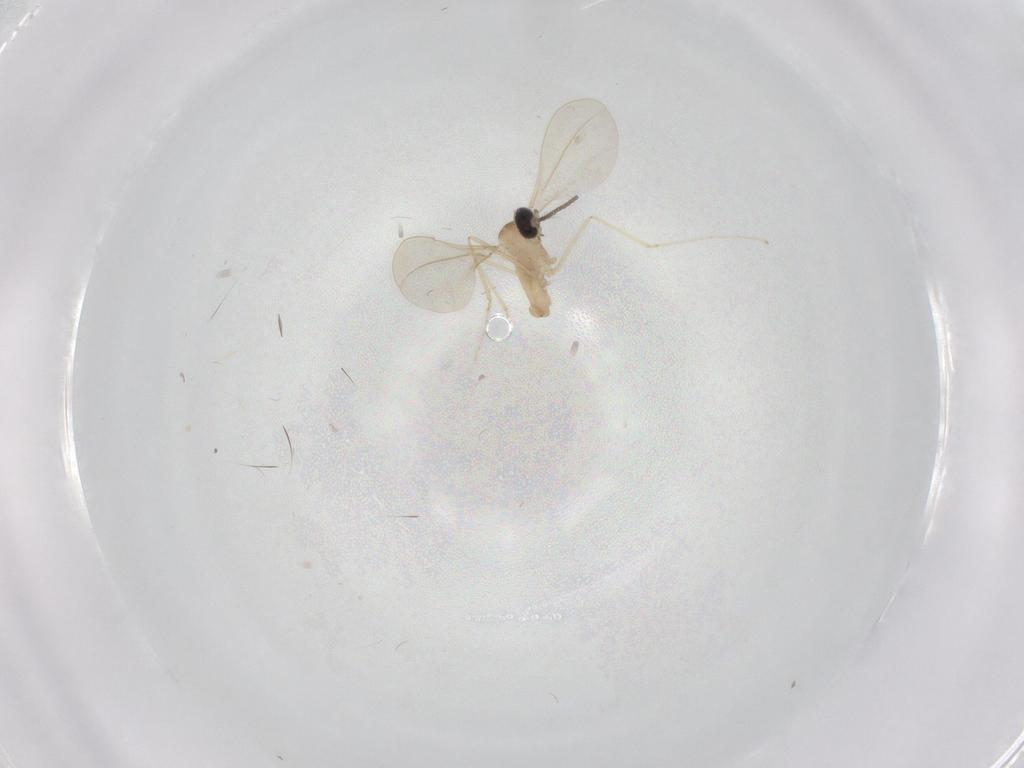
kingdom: Animalia
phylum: Arthropoda
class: Insecta
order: Diptera
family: Cecidomyiidae
